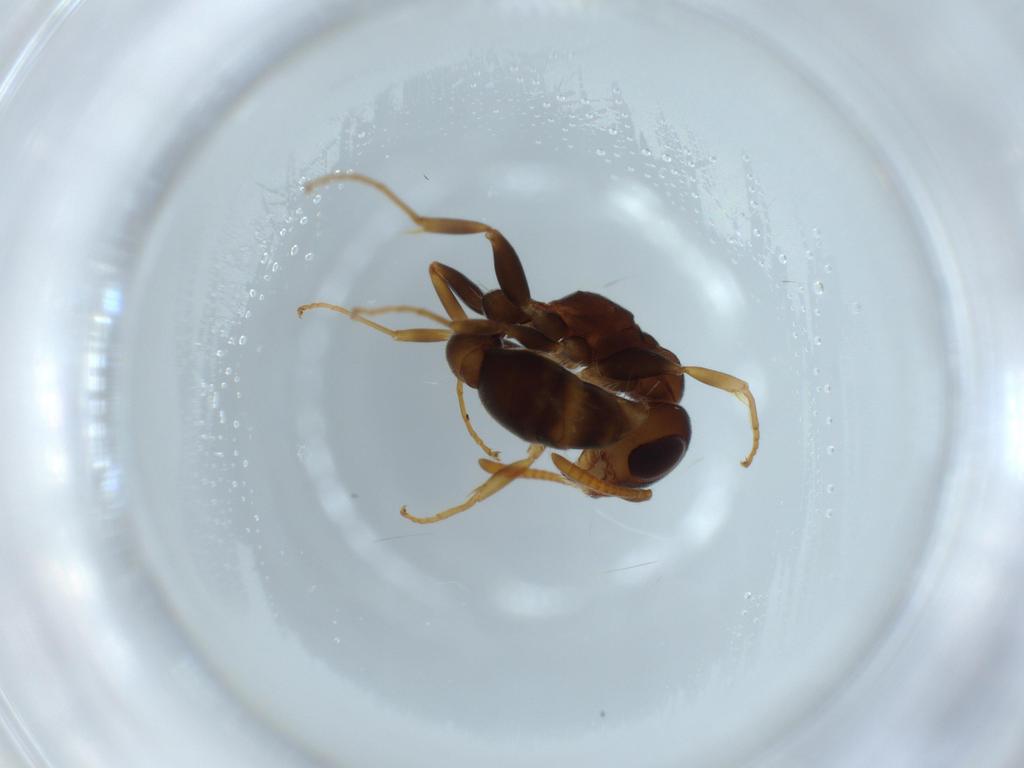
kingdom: Animalia
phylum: Arthropoda
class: Insecta
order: Hymenoptera
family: Formicidae
